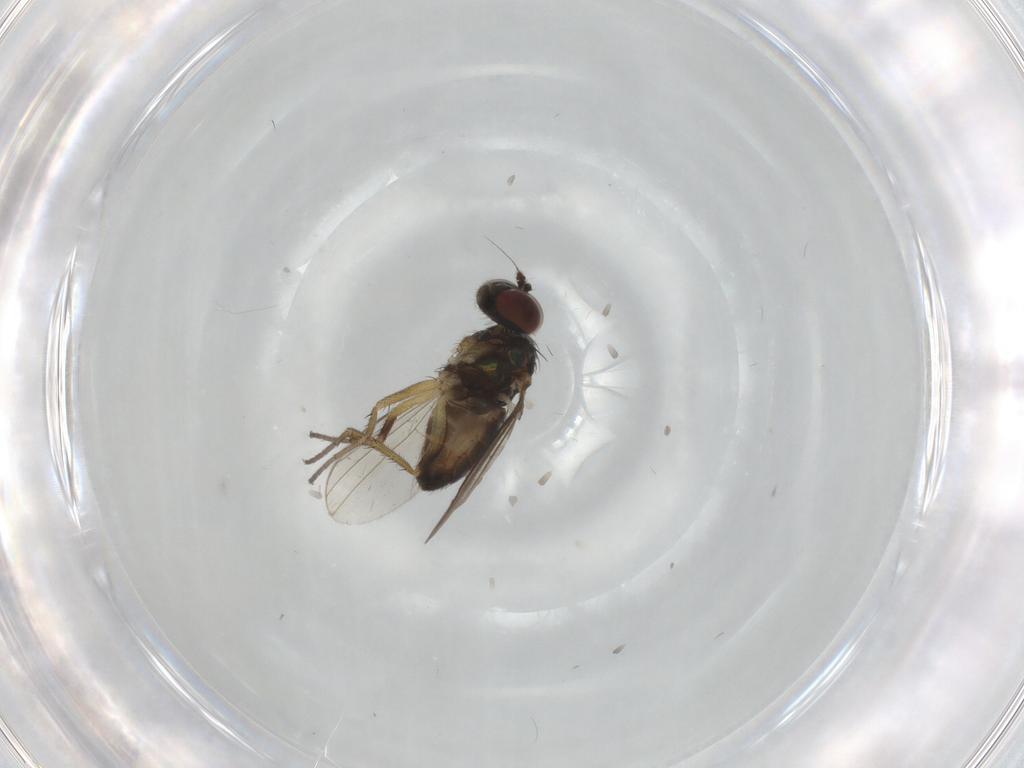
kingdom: Animalia
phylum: Arthropoda
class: Insecta
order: Diptera
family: Dolichopodidae
